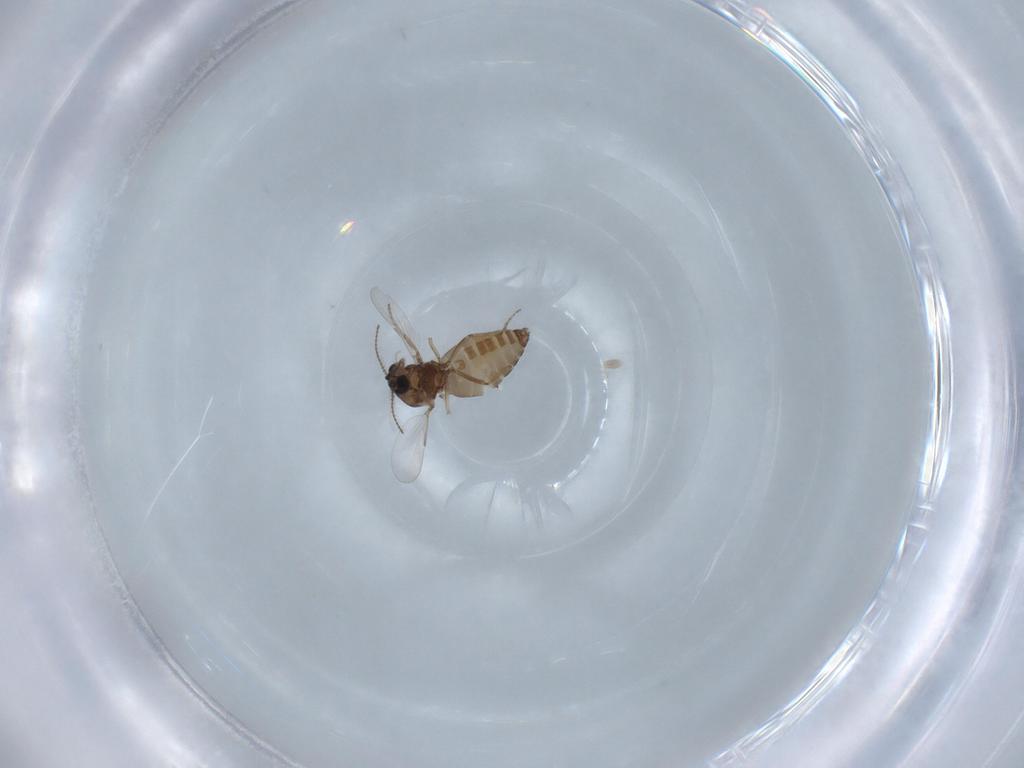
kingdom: Animalia
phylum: Arthropoda
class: Insecta
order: Diptera
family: Ceratopogonidae
